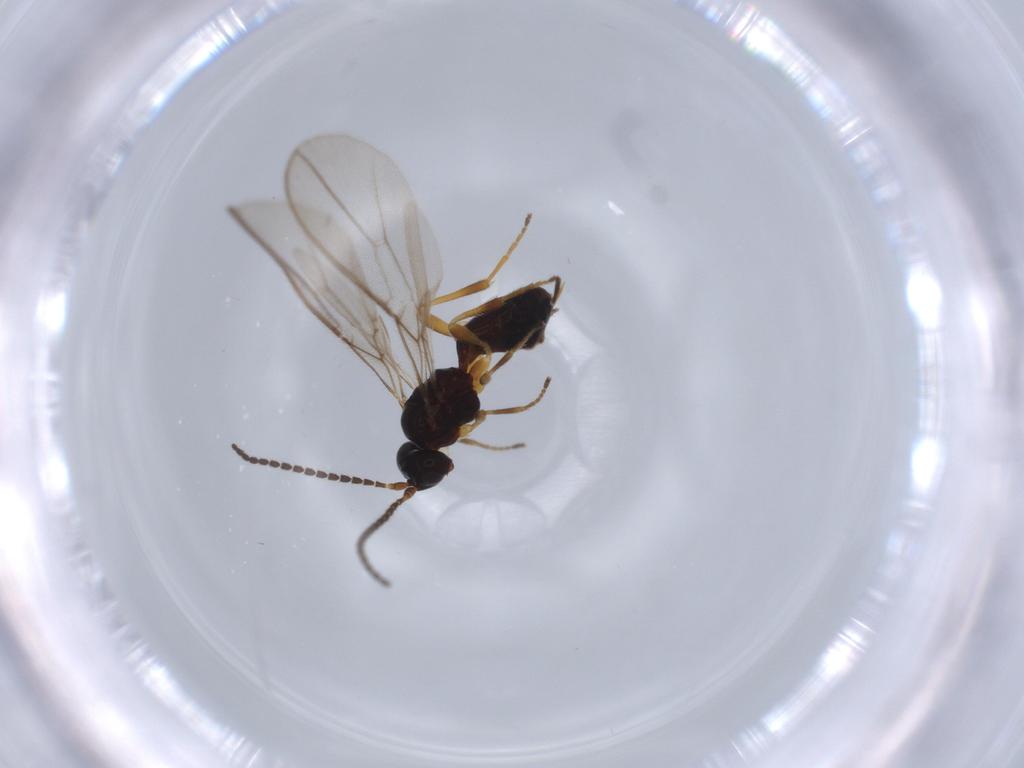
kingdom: Animalia
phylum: Arthropoda
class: Insecta
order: Hymenoptera
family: Braconidae
